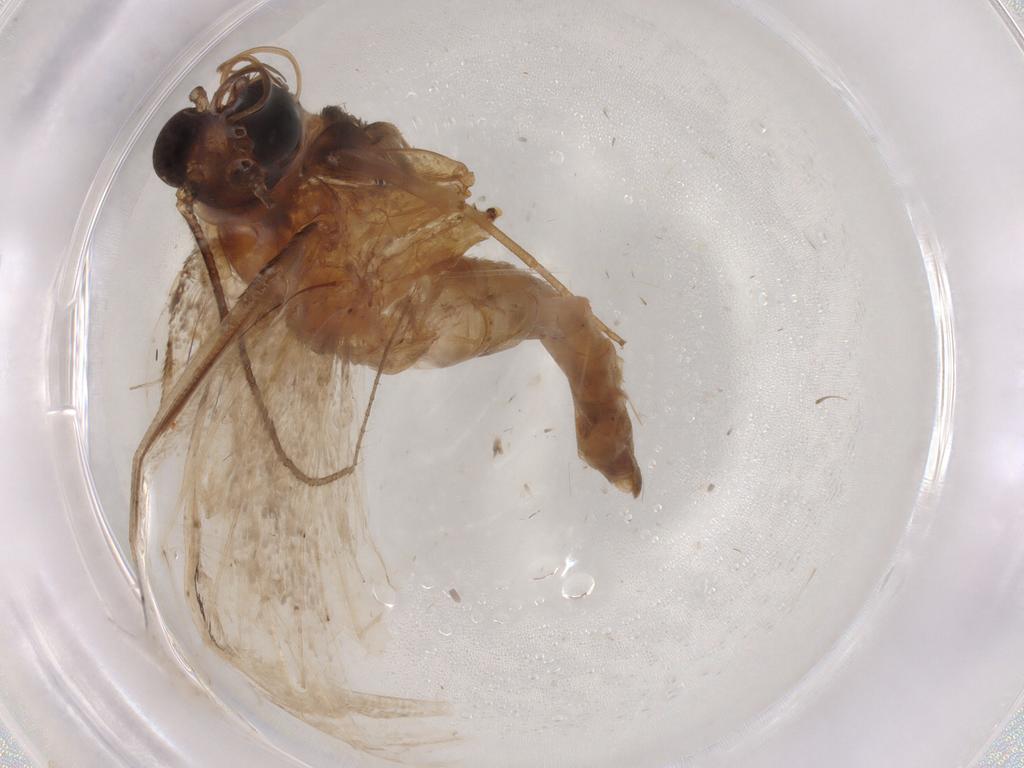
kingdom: Animalia
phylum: Arthropoda
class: Insecta
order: Lepidoptera
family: Erebidae
